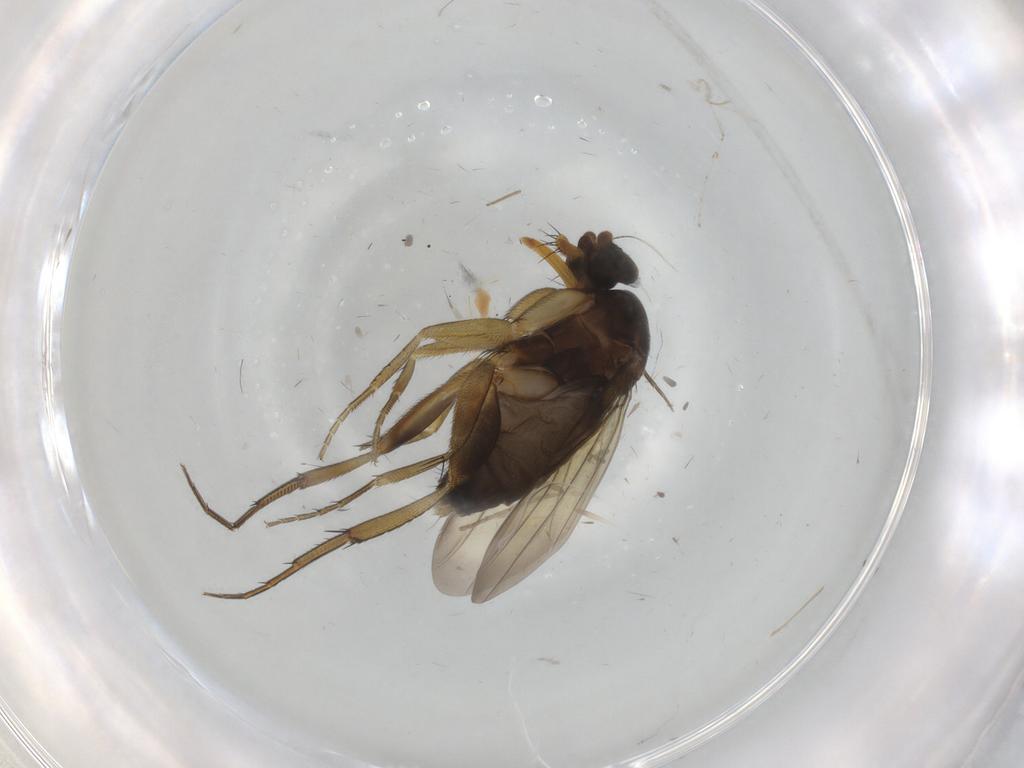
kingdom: Animalia
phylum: Arthropoda
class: Insecta
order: Diptera
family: Psychodidae
